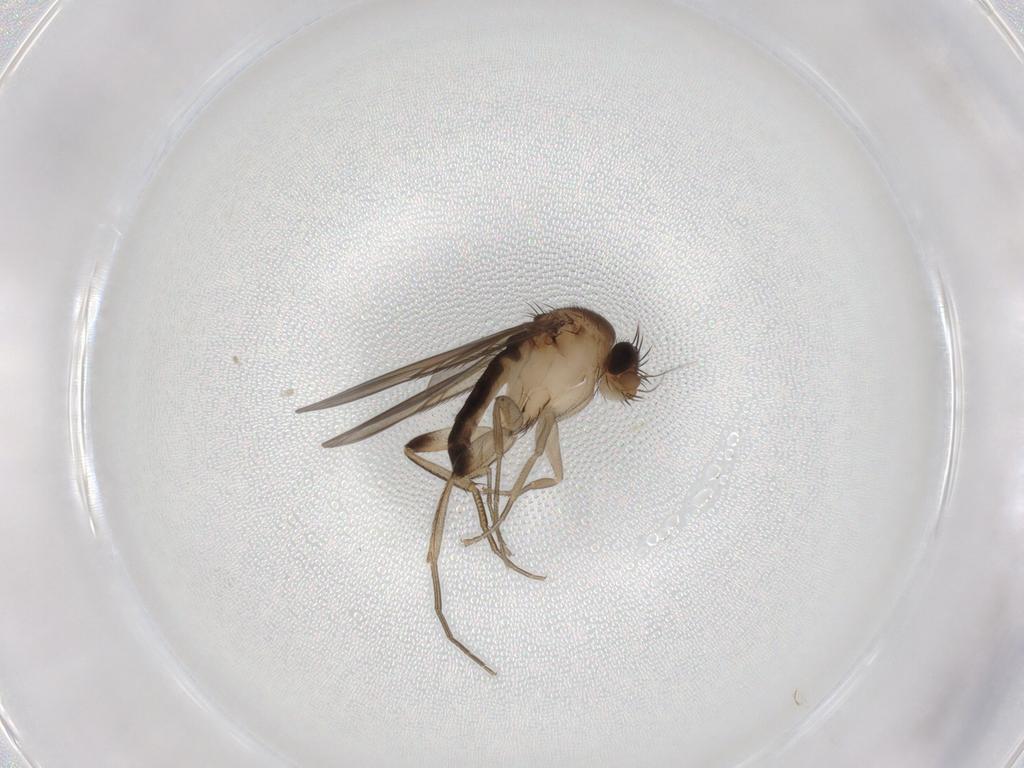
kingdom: Animalia
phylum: Arthropoda
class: Insecta
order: Diptera
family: Phoridae
